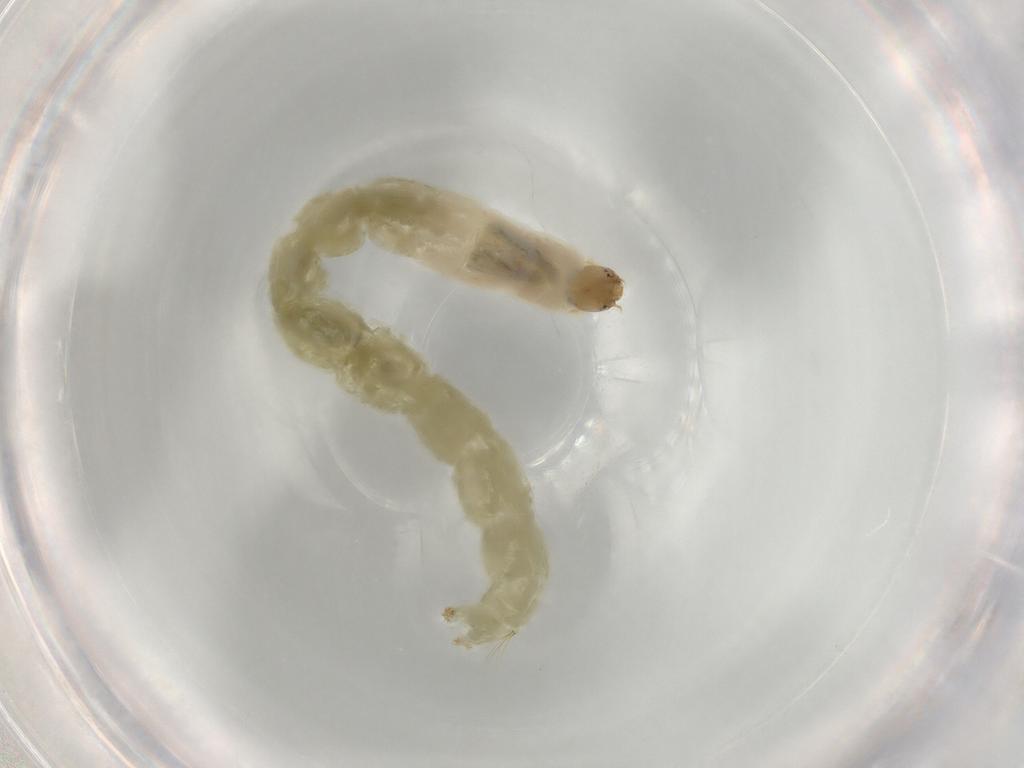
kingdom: Animalia
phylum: Arthropoda
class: Insecta
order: Diptera
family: Chironomidae
